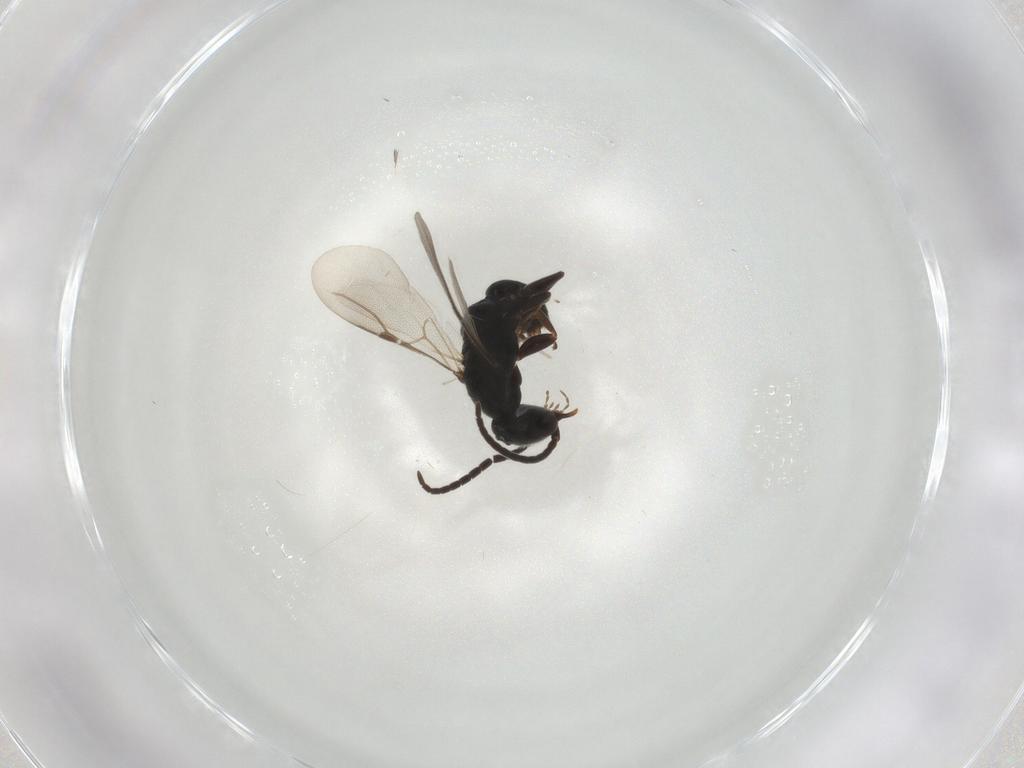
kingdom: Animalia
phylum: Arthropoda
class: Insecta
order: Hymenoptera
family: Bethylidae
